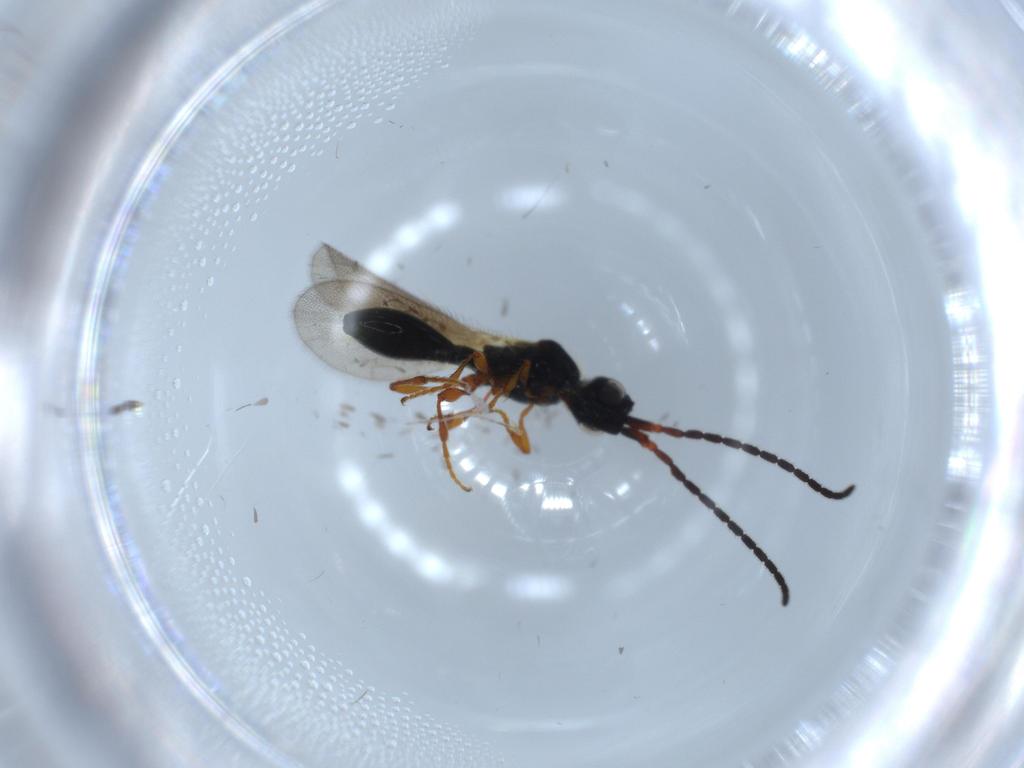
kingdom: Animalia
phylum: Arthropoda
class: Insecta
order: Hymenoptera
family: Diapriidae
